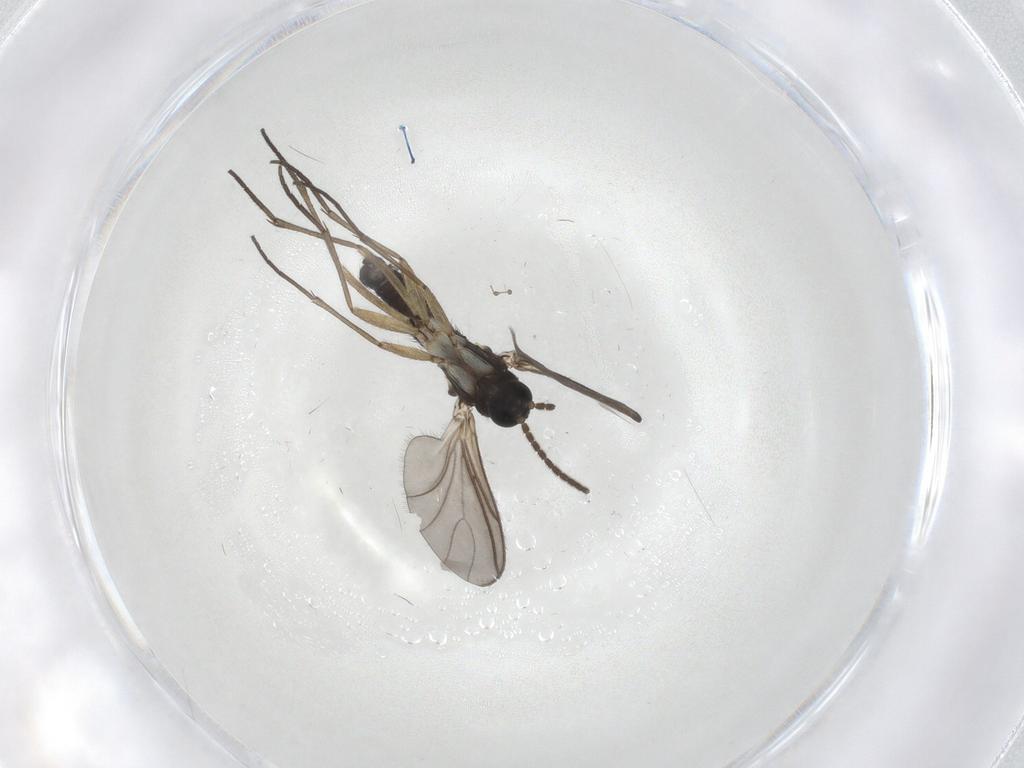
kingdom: Animalia
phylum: Arthropoda
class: Insecta
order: Diptera
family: Sciaridae
